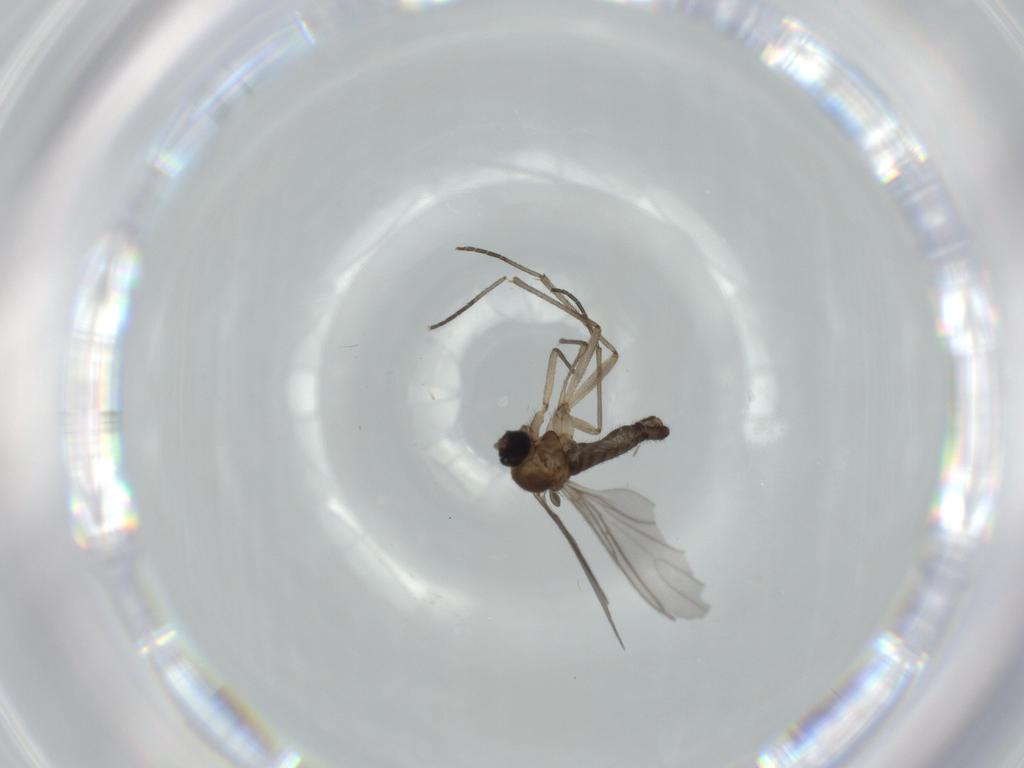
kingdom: Animalia
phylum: Arthropoda
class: Insecta
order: Diptera
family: Sciaridae
